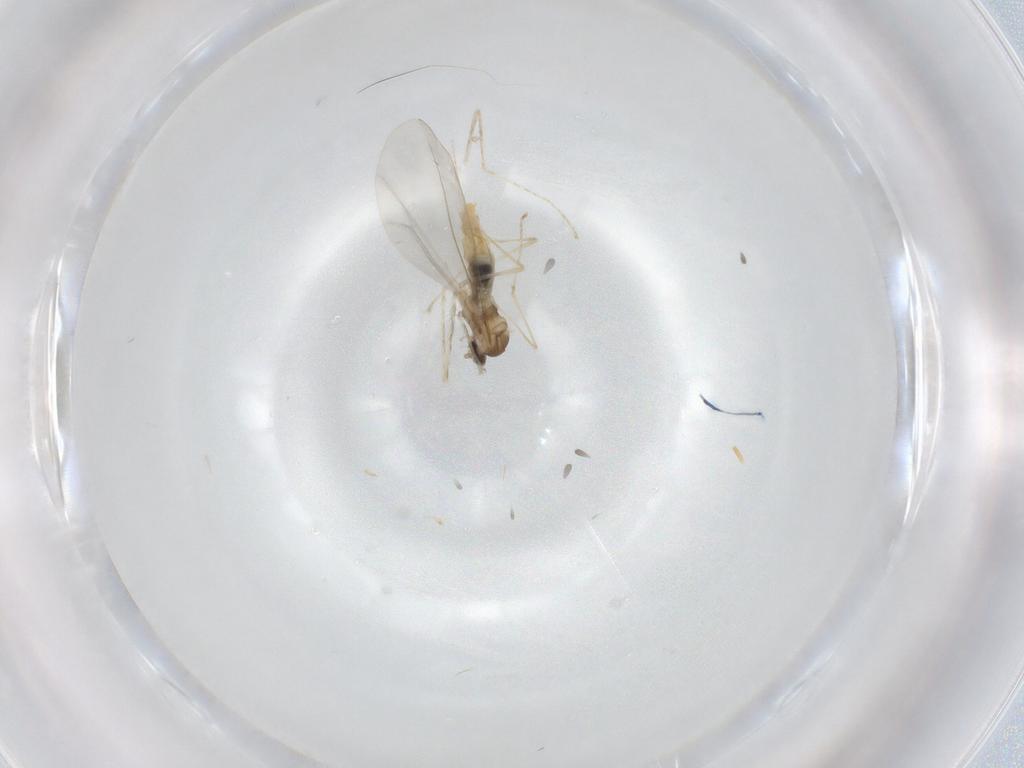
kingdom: Animalia
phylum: Arthropoda
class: Insecta
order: Diptera
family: Cecidomyiidae
